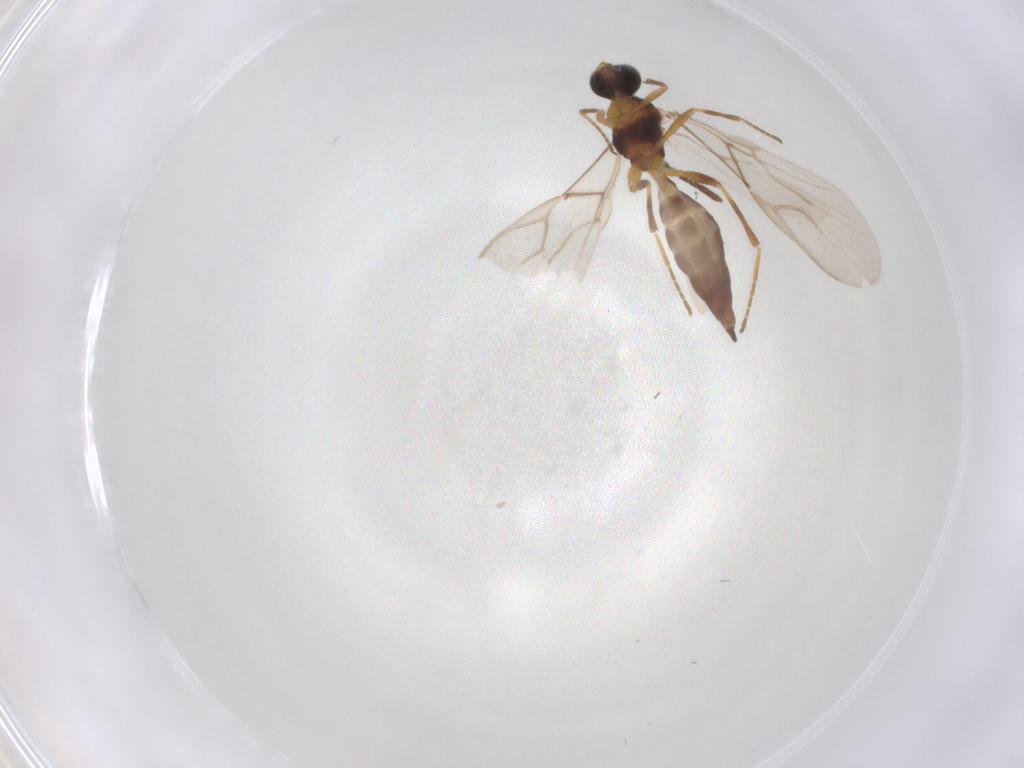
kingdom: Animalia
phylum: Arthropoda
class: Insecta
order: Hymenoptera
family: Braconidae
